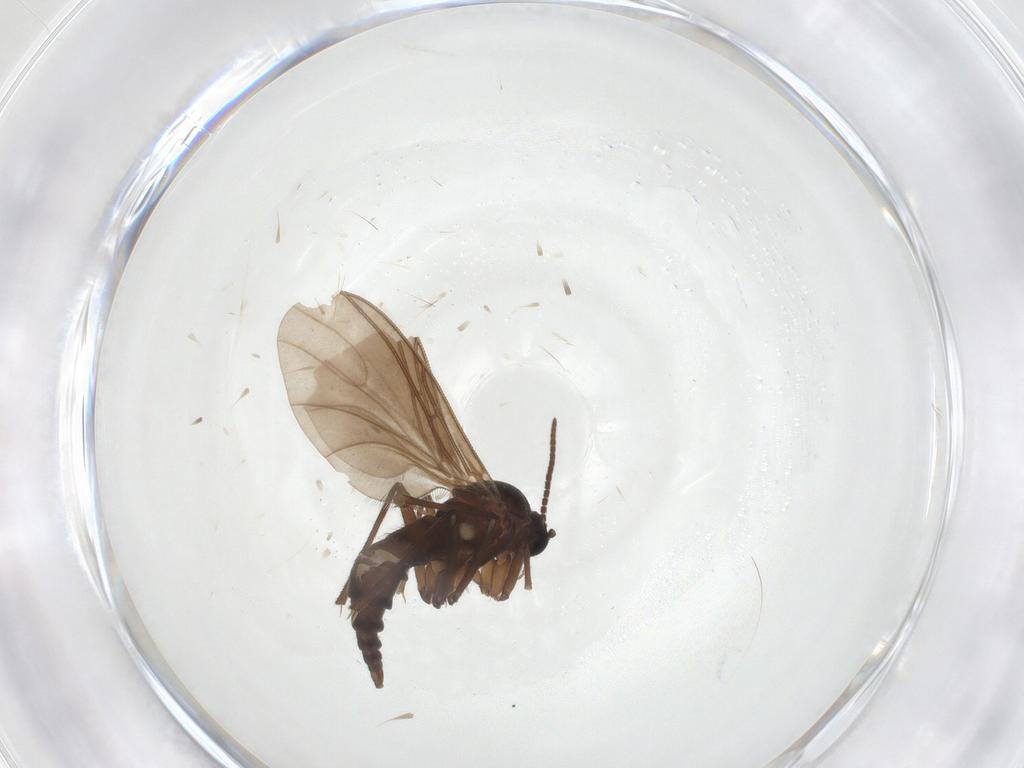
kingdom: Animalia
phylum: Arthropoda
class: Insecta
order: Diptera
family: Sciaridae
